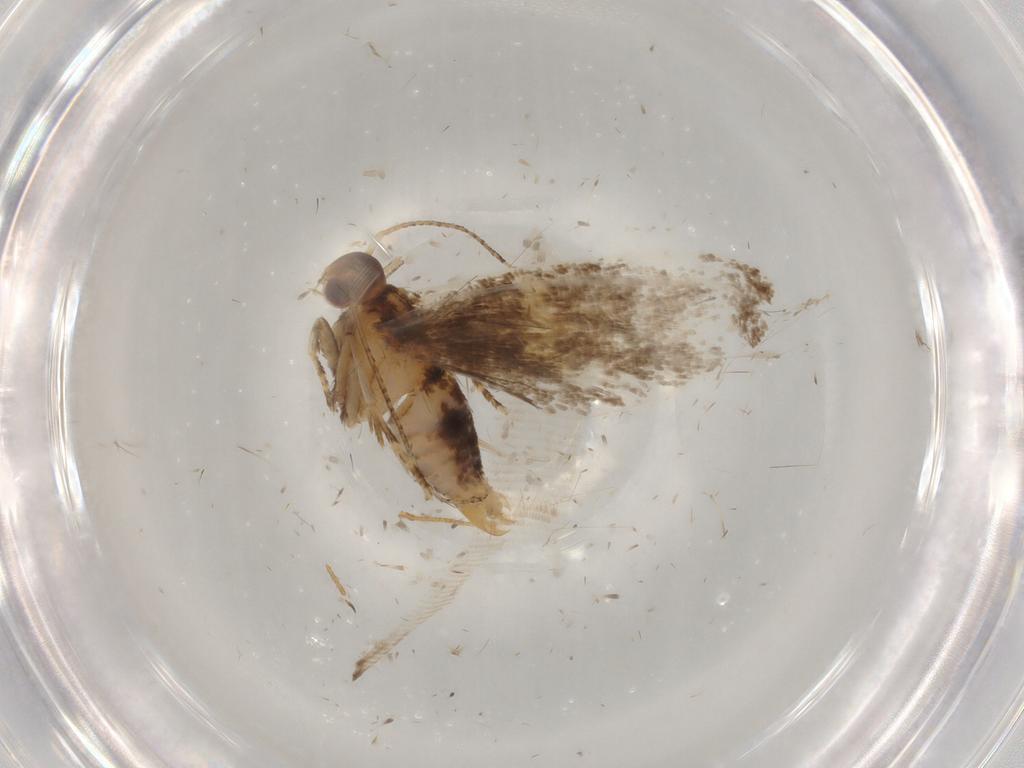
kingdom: Animalia
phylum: Arthropoda
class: Insecta
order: Lepidoptera
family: Oecophoridae
